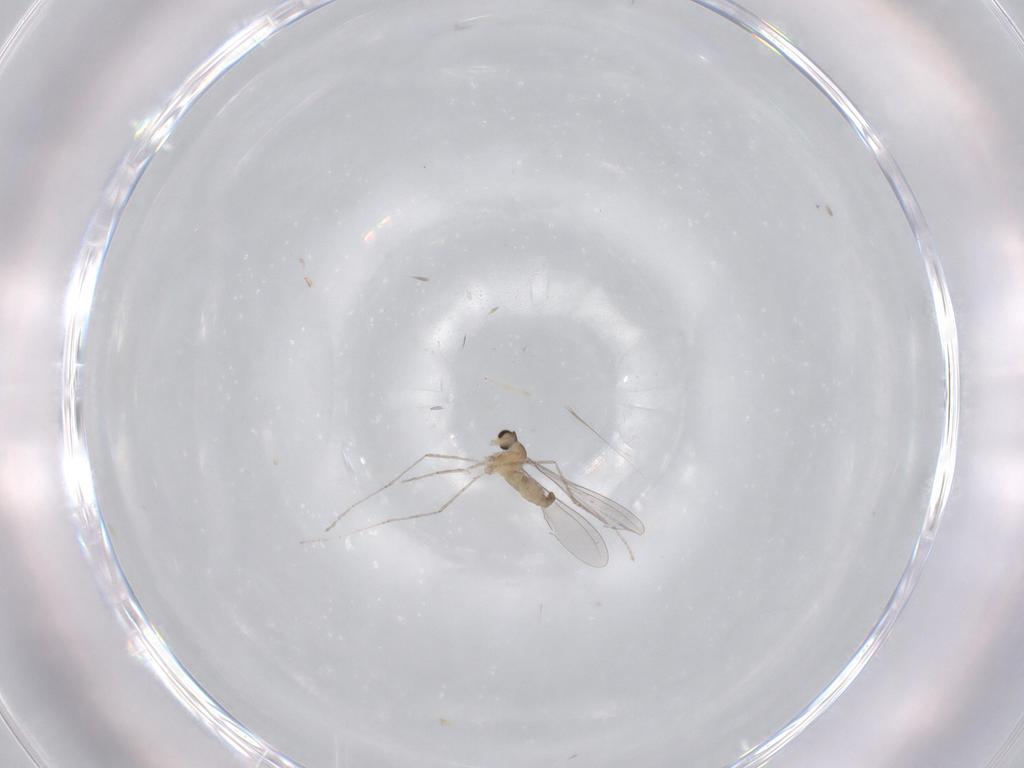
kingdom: Animalia
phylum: Arthropoda
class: Insecta
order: Diptera
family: Cecidomyiidae
